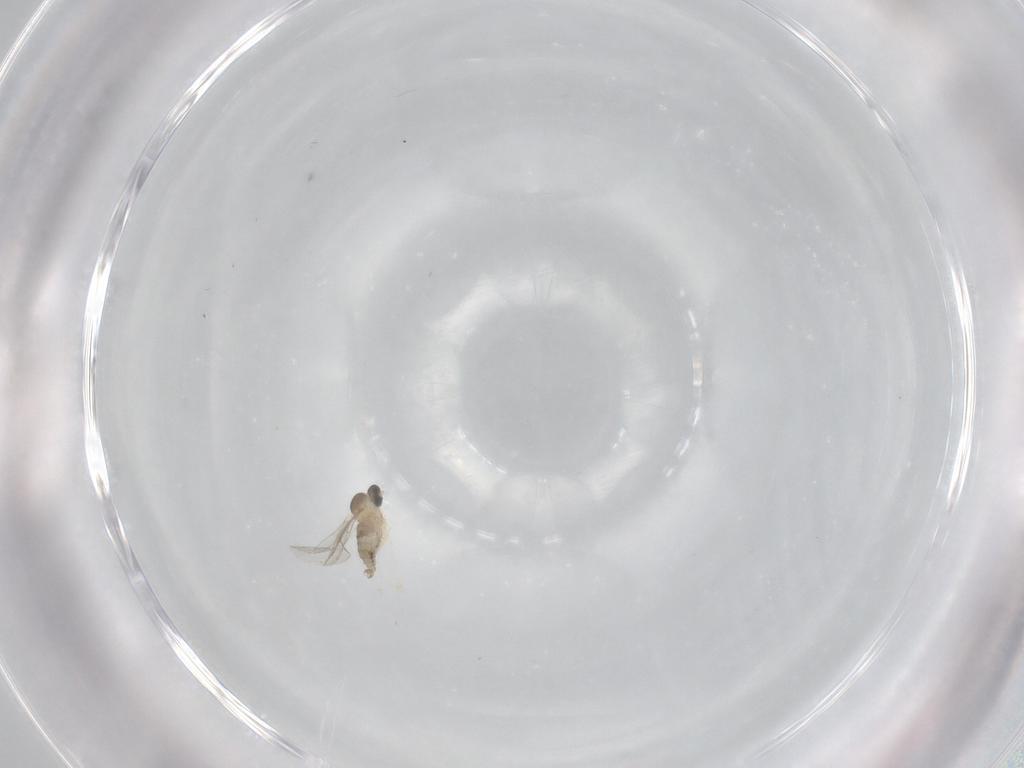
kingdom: Animalia
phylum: Arthropoda
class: Insecta
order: Diptera
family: Cecidomyiidae
